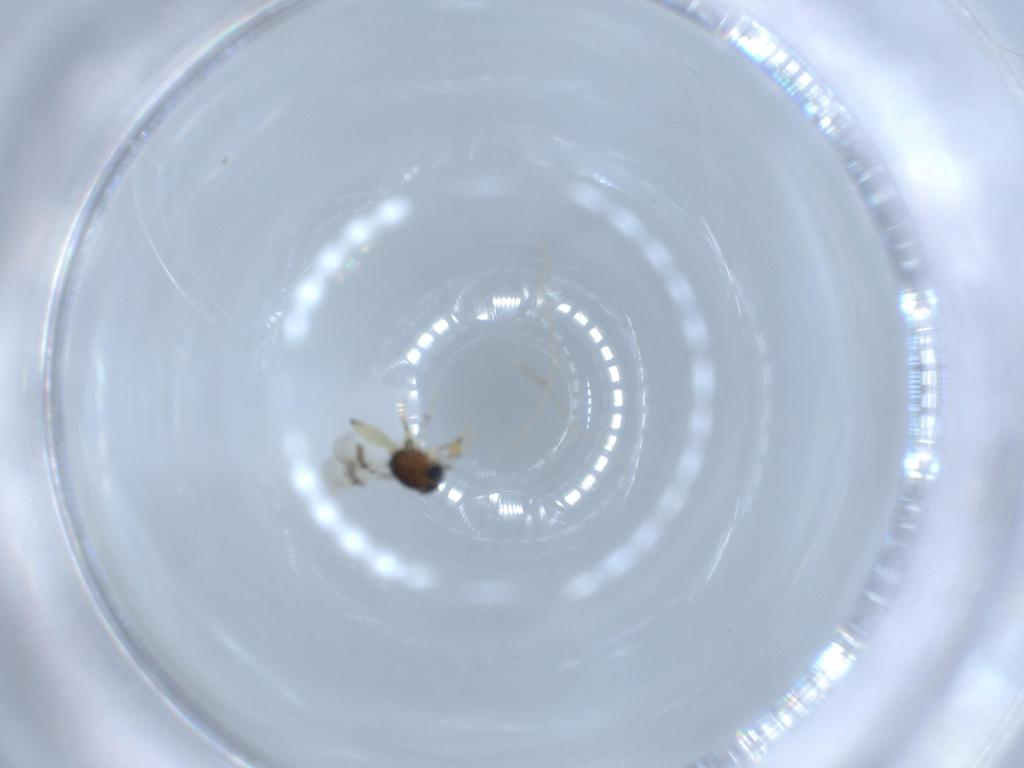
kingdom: Animalia
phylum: Arthropoda
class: Insecta
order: Hymenoptera
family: Scelionidae
